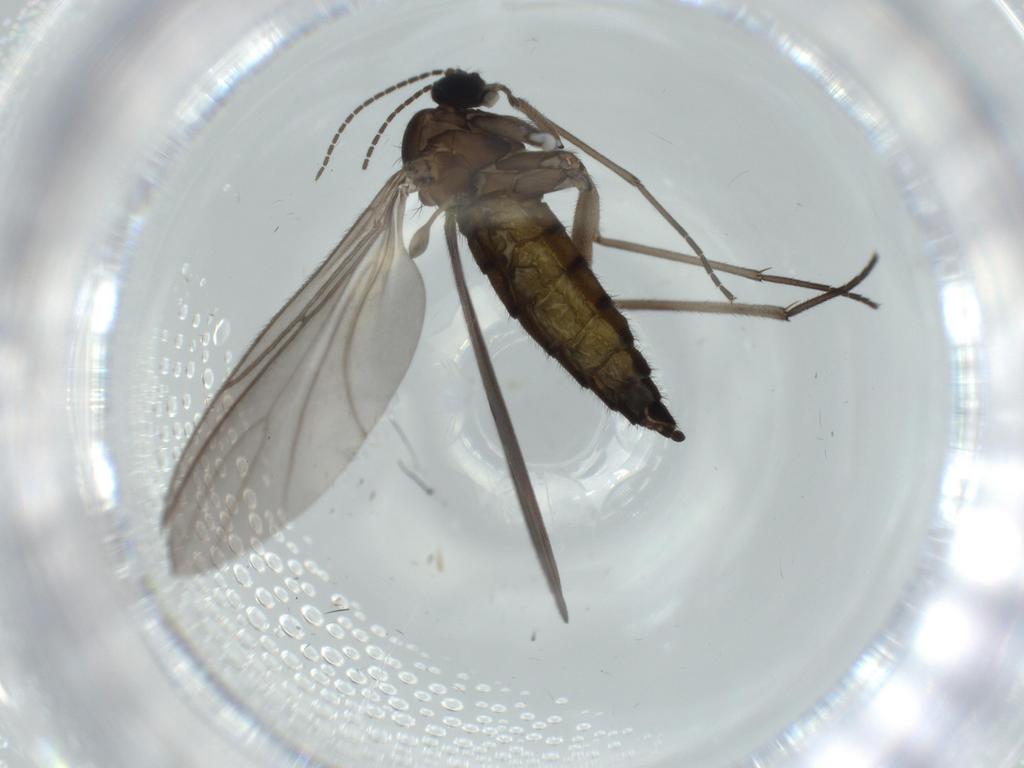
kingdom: Animalia
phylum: Arthropoda
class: Insecta
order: Diptera
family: Sciaridae
